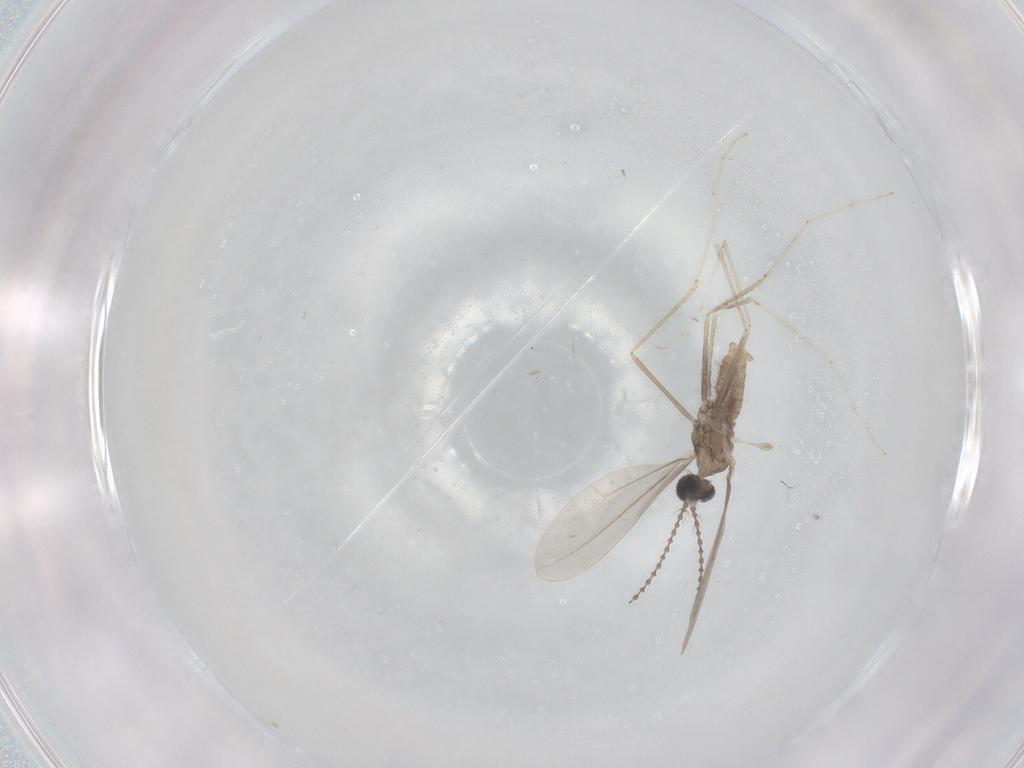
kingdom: Animalia
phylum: Arthropoda
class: Insecta
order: Diptera
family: Cecidomyiidae
